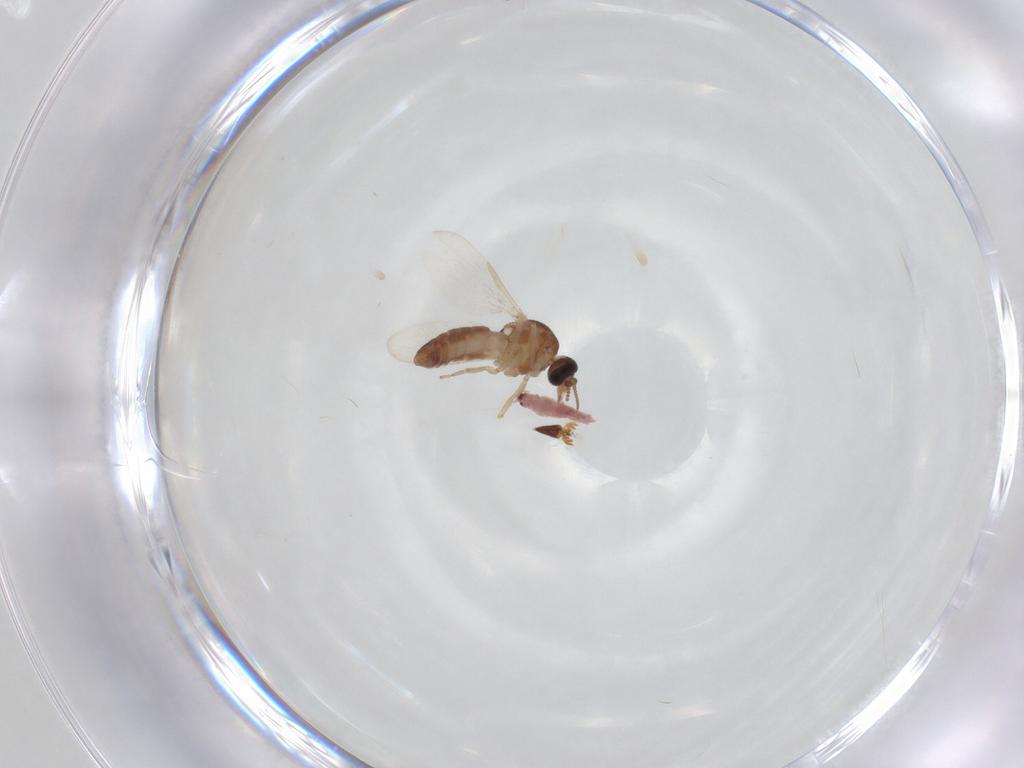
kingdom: Animalia
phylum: Arthropoda
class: Insecta
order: Diptera
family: Ceratopogonidae
